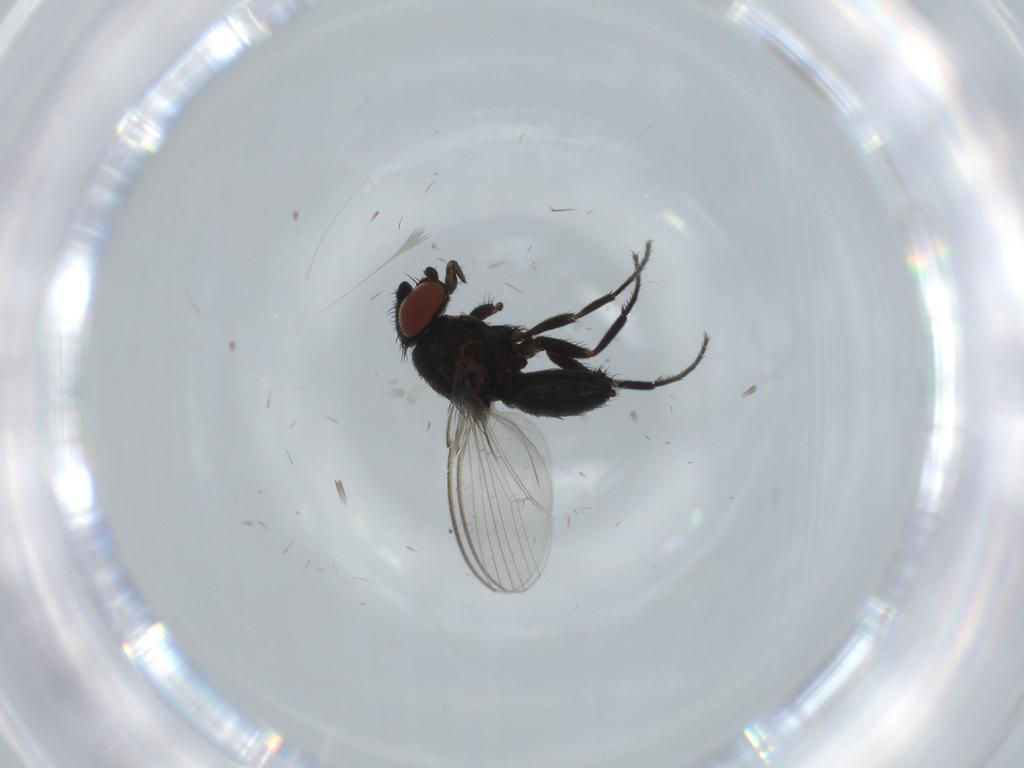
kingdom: Animalia
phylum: Arthropoda
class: Insecta
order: Diptera
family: Milichiidae
